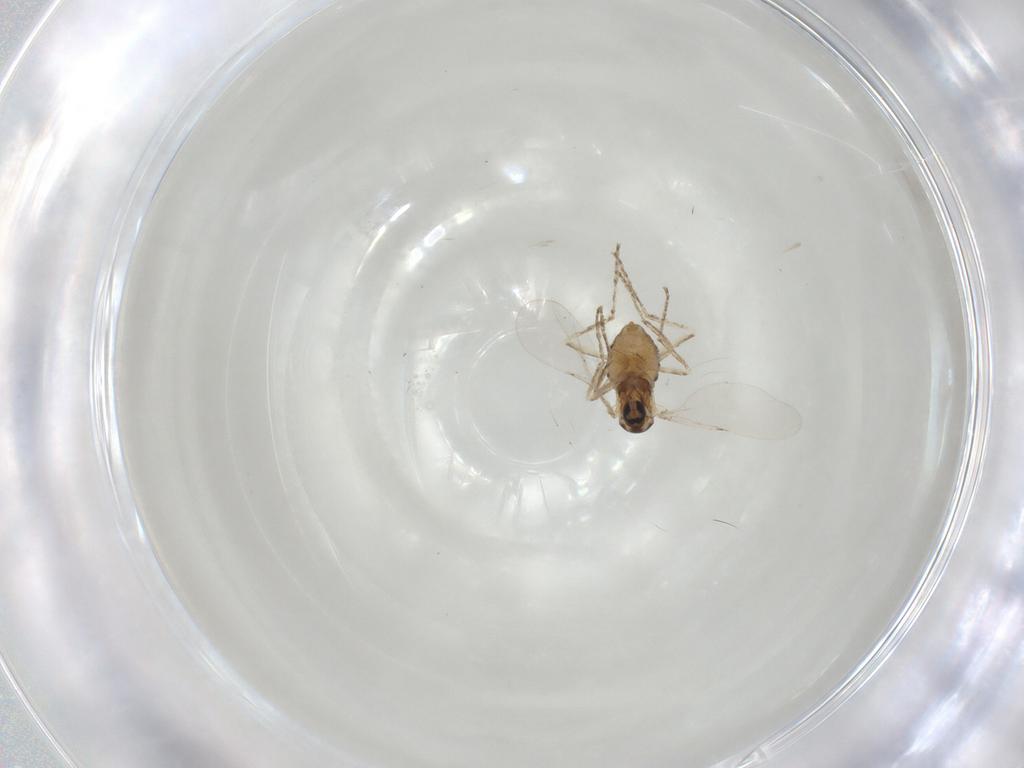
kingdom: Animalia
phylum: Arthropoda
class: Insecta
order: Diptera
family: Cecidomyiidae
